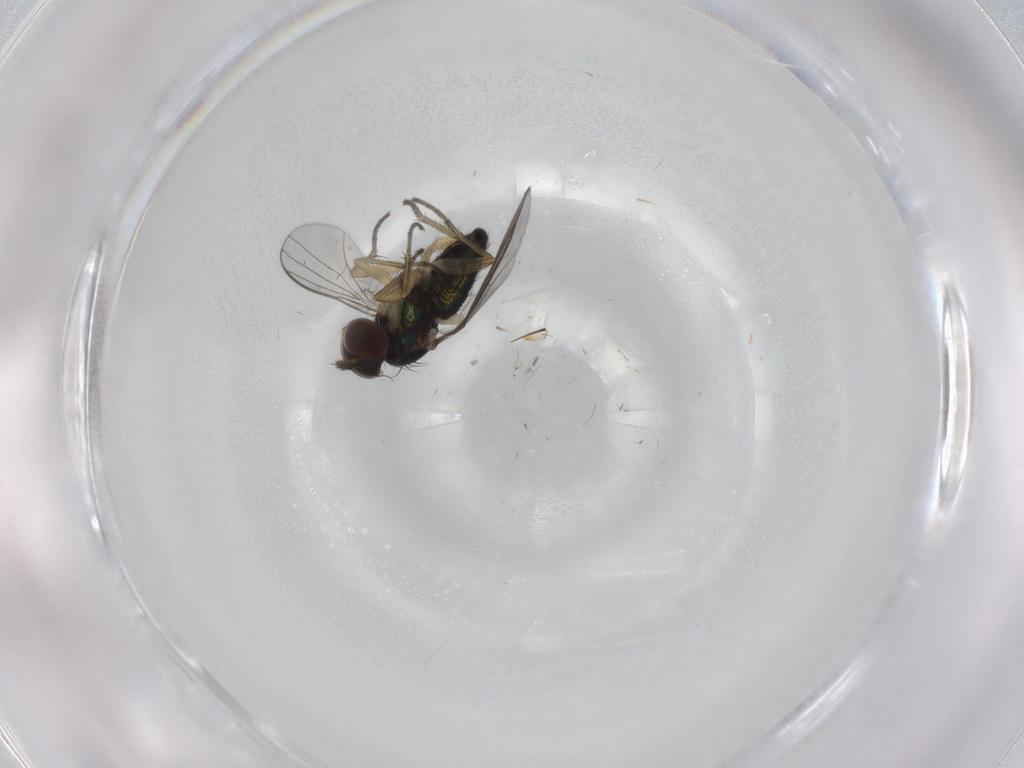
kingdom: Animalia
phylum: Arthropoda
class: Insecta
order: Diptera
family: Dolichopodidae
